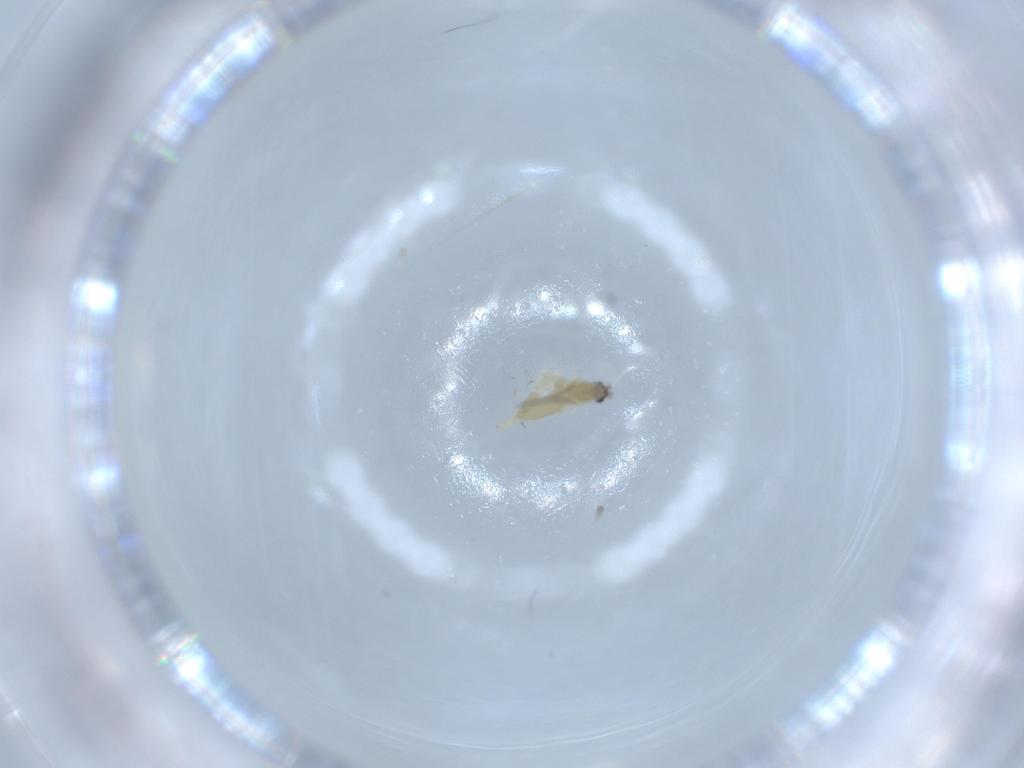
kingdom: Animalia
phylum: Arthropoda
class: Insecta
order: Diptera
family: Cecidomyiidae
